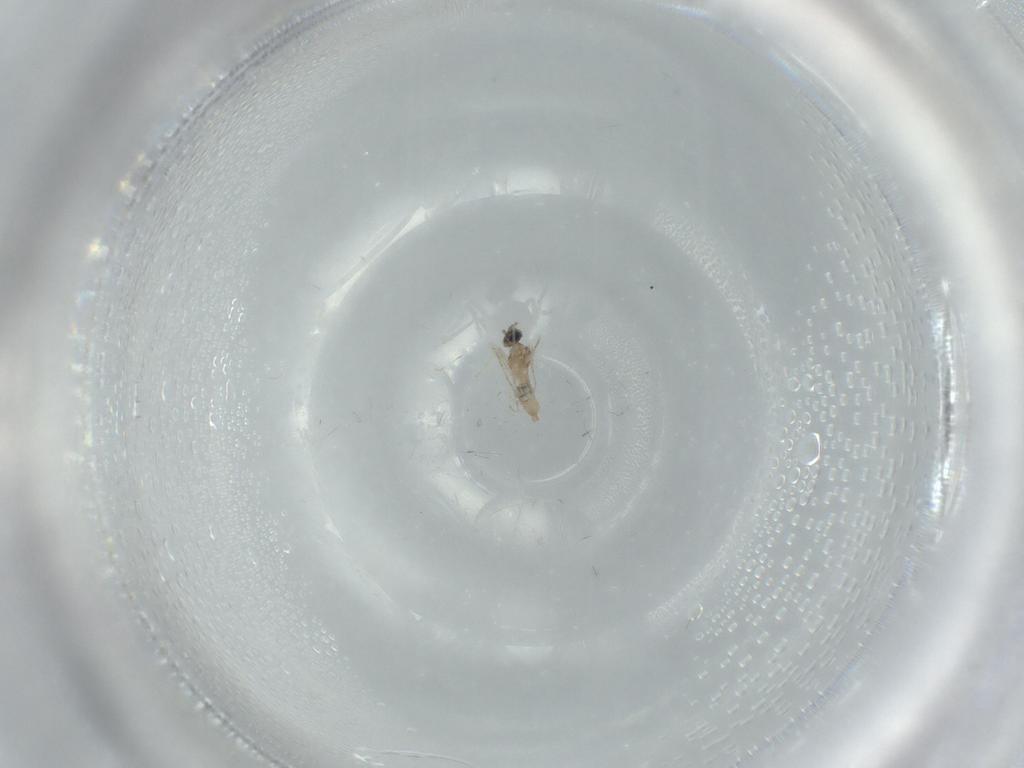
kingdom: Animalia
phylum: Arthropoda
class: Insecta
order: Diptera
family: Cecidomyiidae
